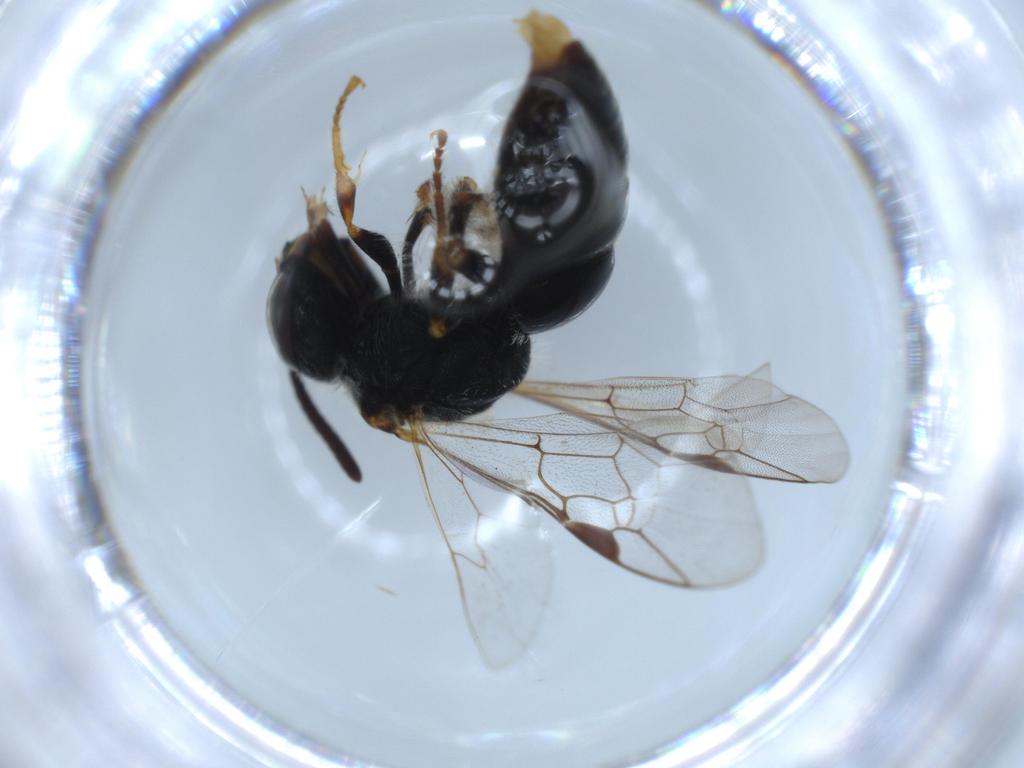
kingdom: Animalia
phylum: Arthropoda
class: Insecta
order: Hymenoptera
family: Halictidae
